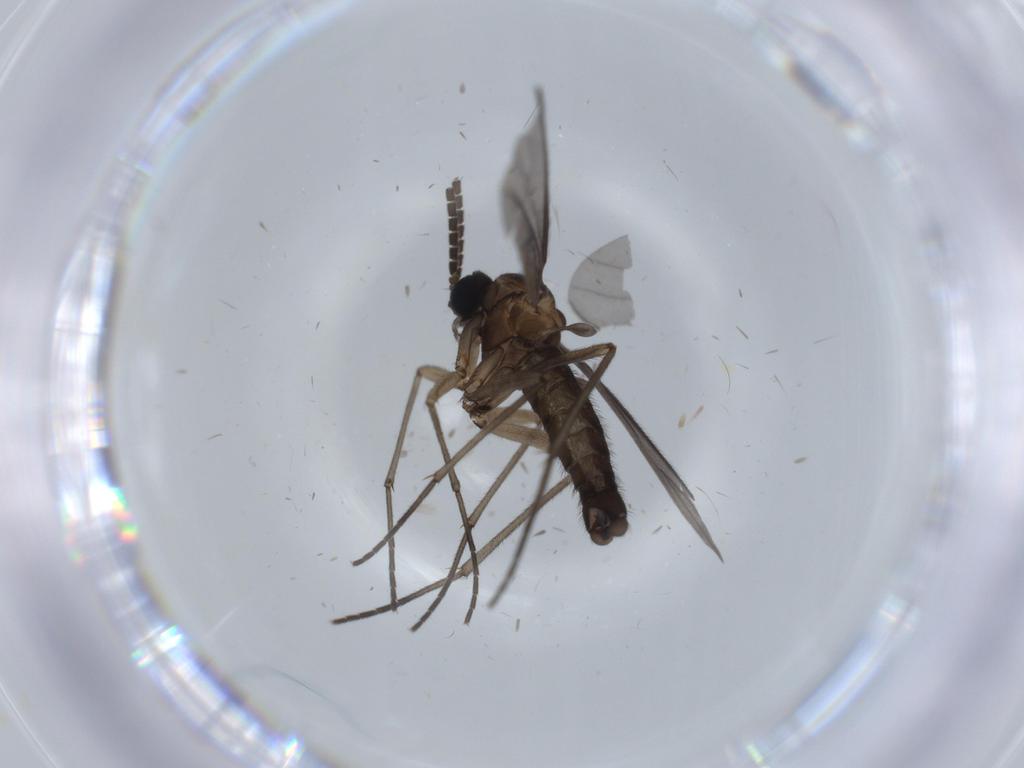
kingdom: Animalia
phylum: Arthropoda
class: Insecta
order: Diptera
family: Sciaridae
